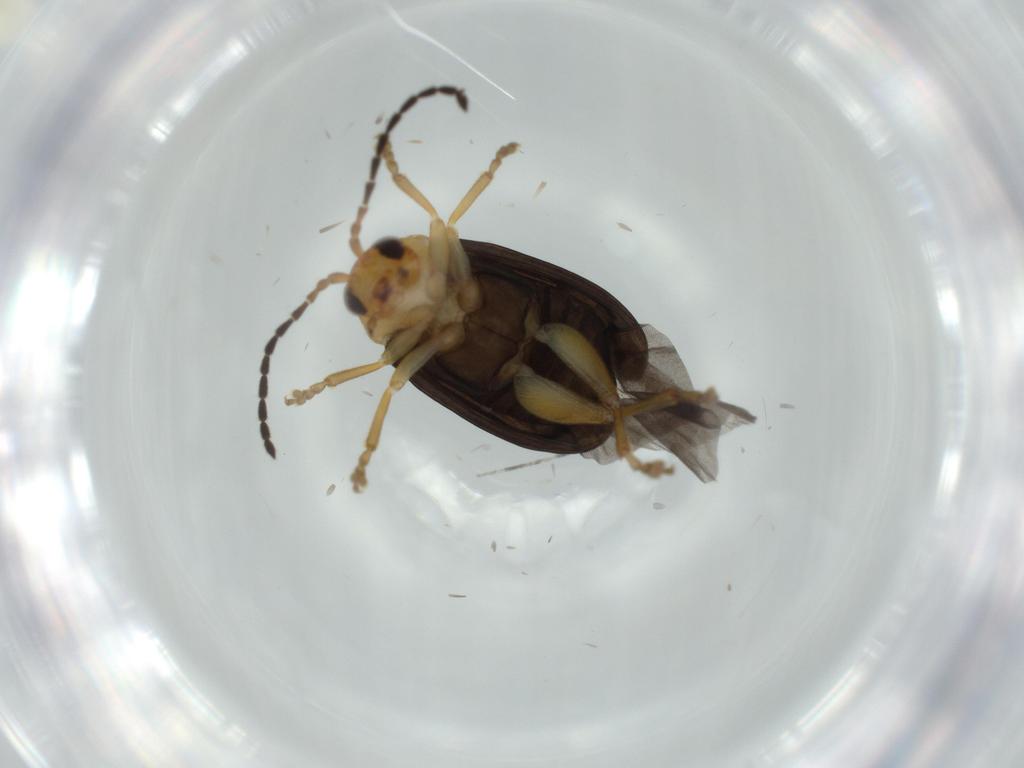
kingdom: Animalia
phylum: Arthropoda
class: Insecta
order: Coleoptera
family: Chrysomelidae
